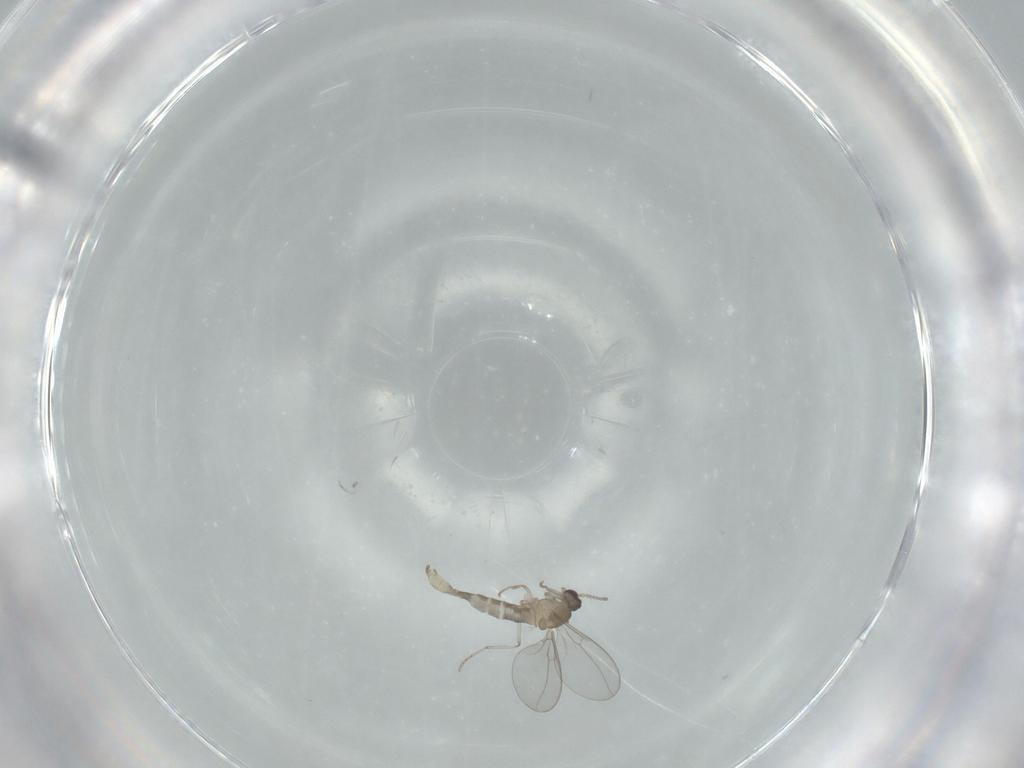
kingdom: Animalia
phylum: Arthropoda
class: Insecta
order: Diptera
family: Cecidomyiidae
